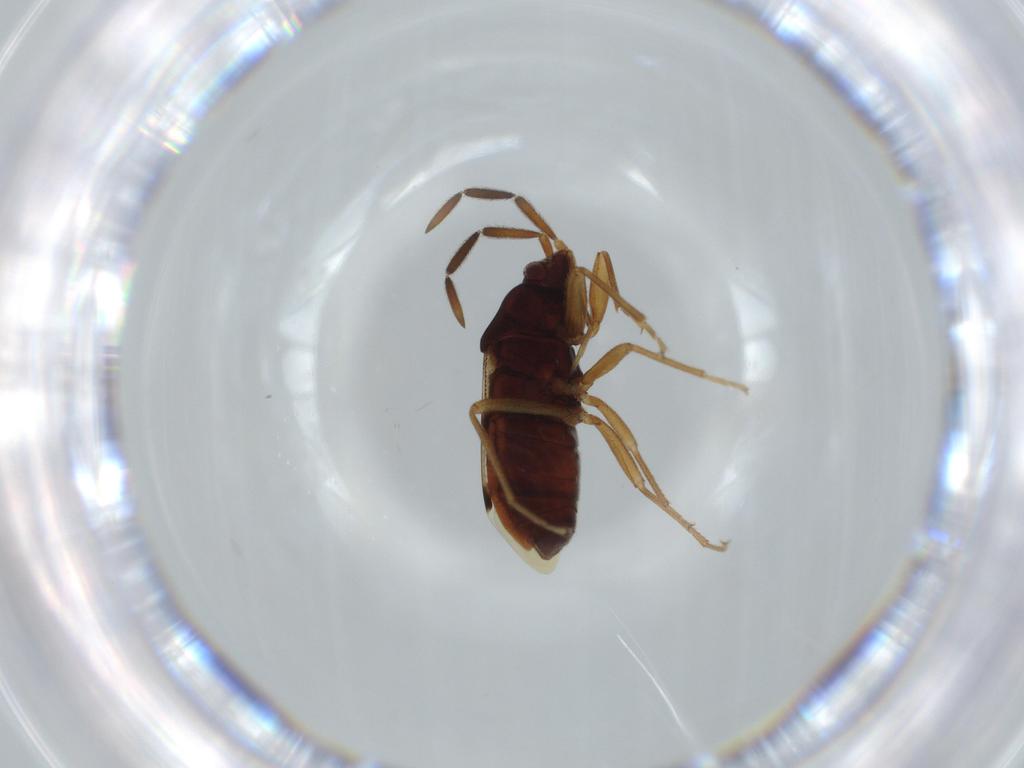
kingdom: Animalia
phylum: Arthropoda
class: Insecta
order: Hemiptera
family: Rhyparochromidae
